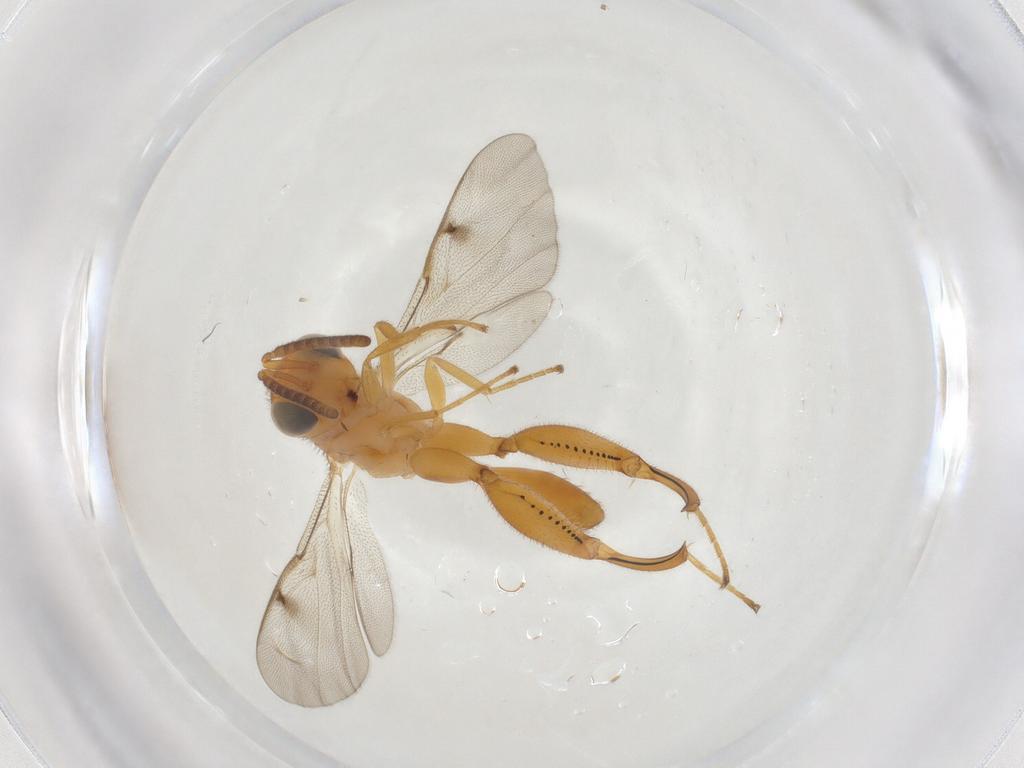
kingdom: Animalia
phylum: Arthropoda
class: Insecta
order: Hymenoptera
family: Chalcididae
